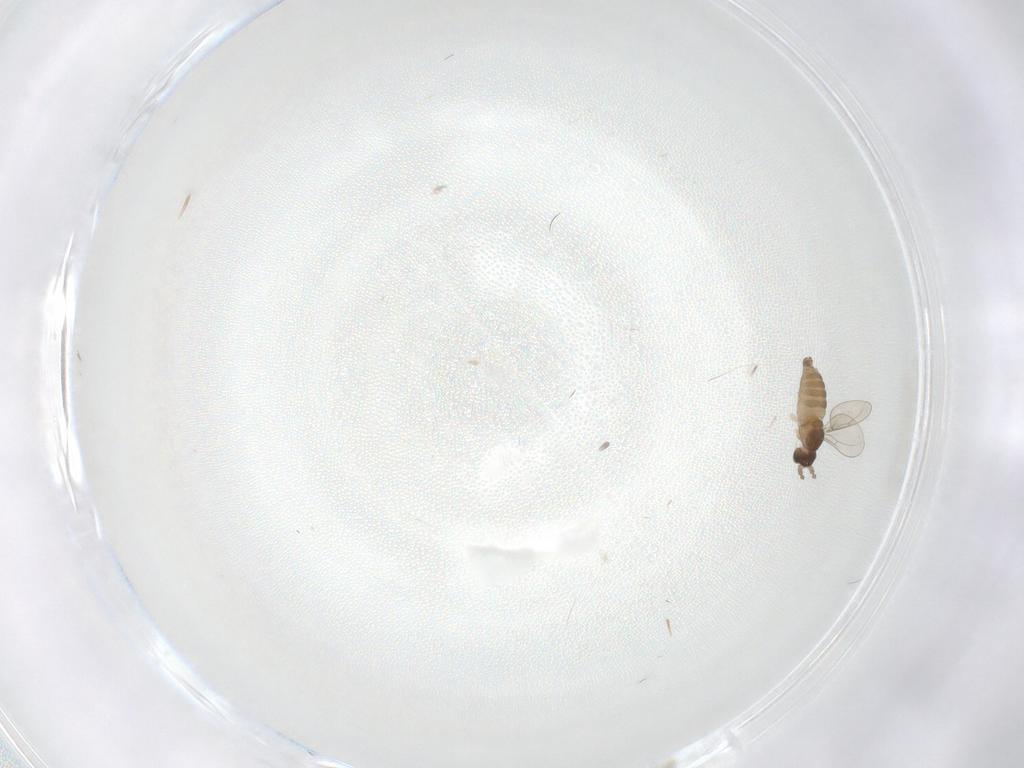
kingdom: Animalia
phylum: Arthropoda
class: Insecta
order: Diptera
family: Cecidomyiidae
